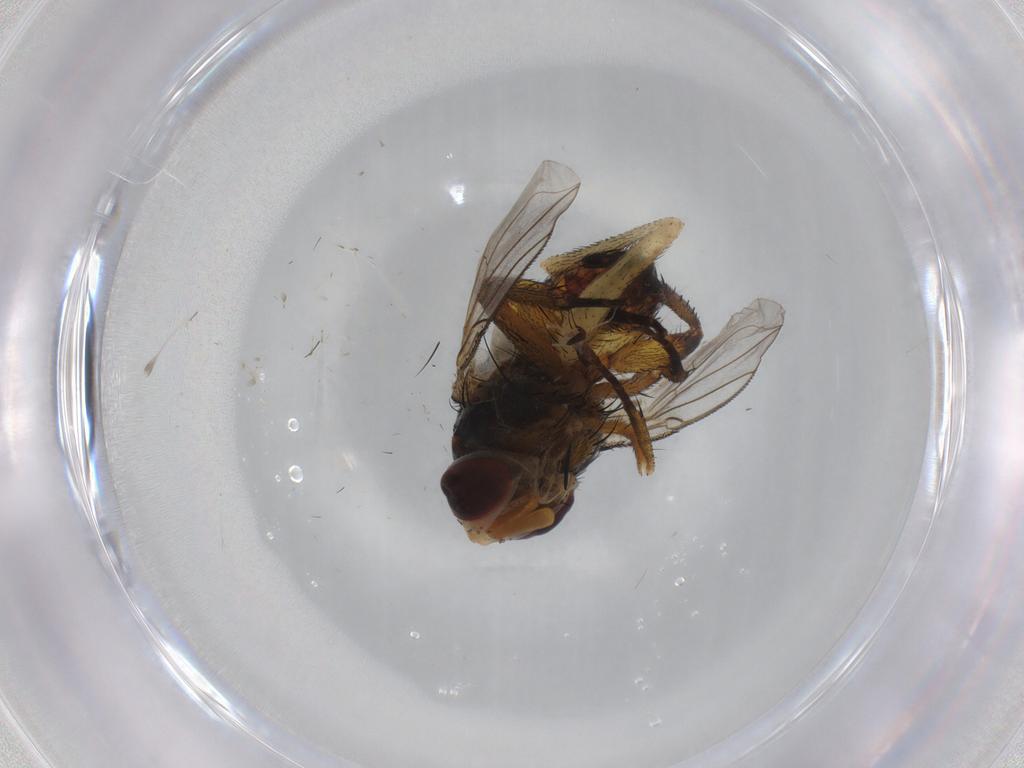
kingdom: Animalia
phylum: Arthropoda
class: Insecta
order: Diptera
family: Tachinidae
